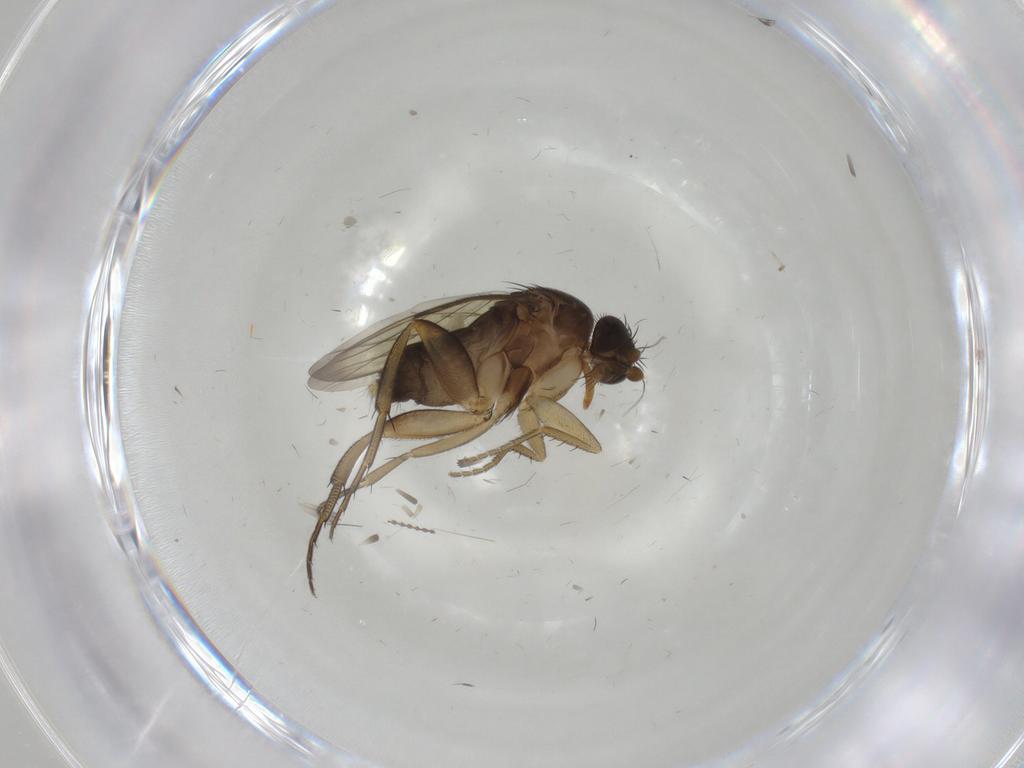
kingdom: Animalia
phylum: Arthropoda
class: Insecta
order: Diptera
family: Phoridae
